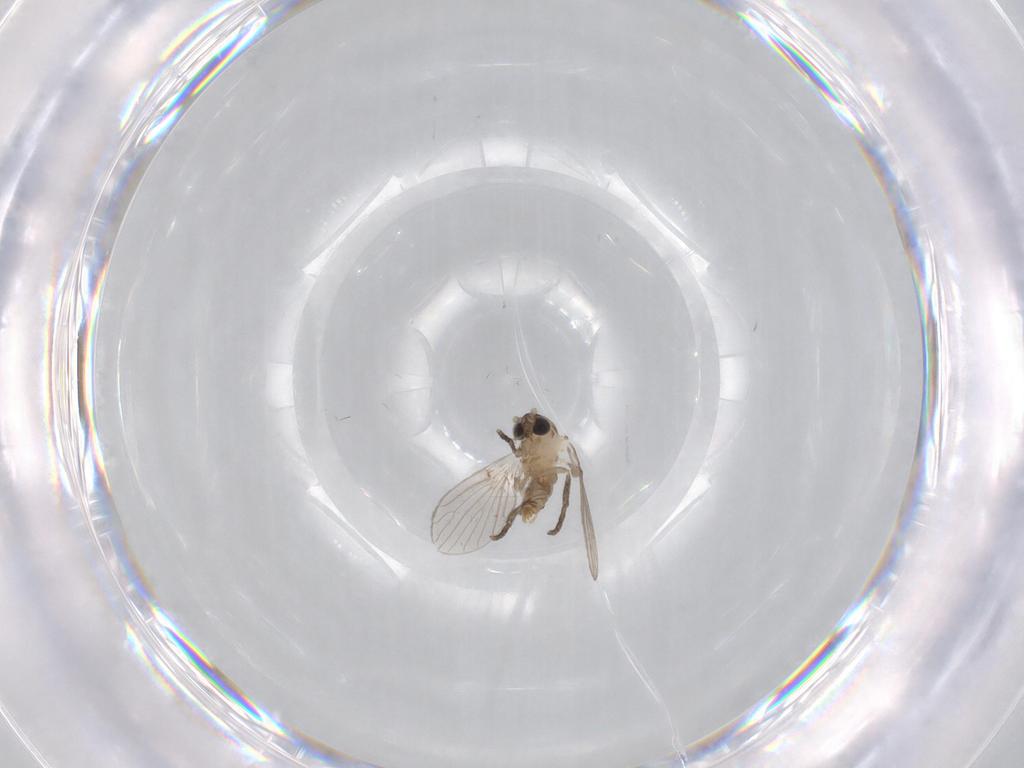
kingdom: Animalia
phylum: Arthropoda
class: Insecta
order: Diptera
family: Psychodidae
